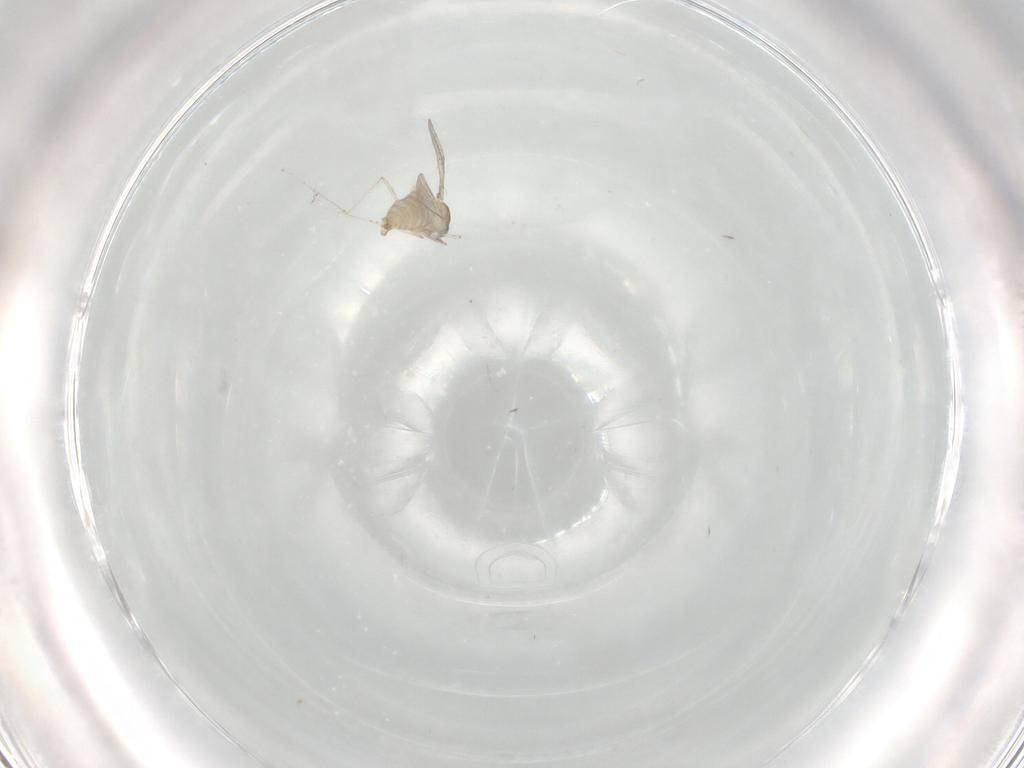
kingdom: Animalia
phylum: Arthropoda
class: Insecta
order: Diptera
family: Cecidomyiidae
